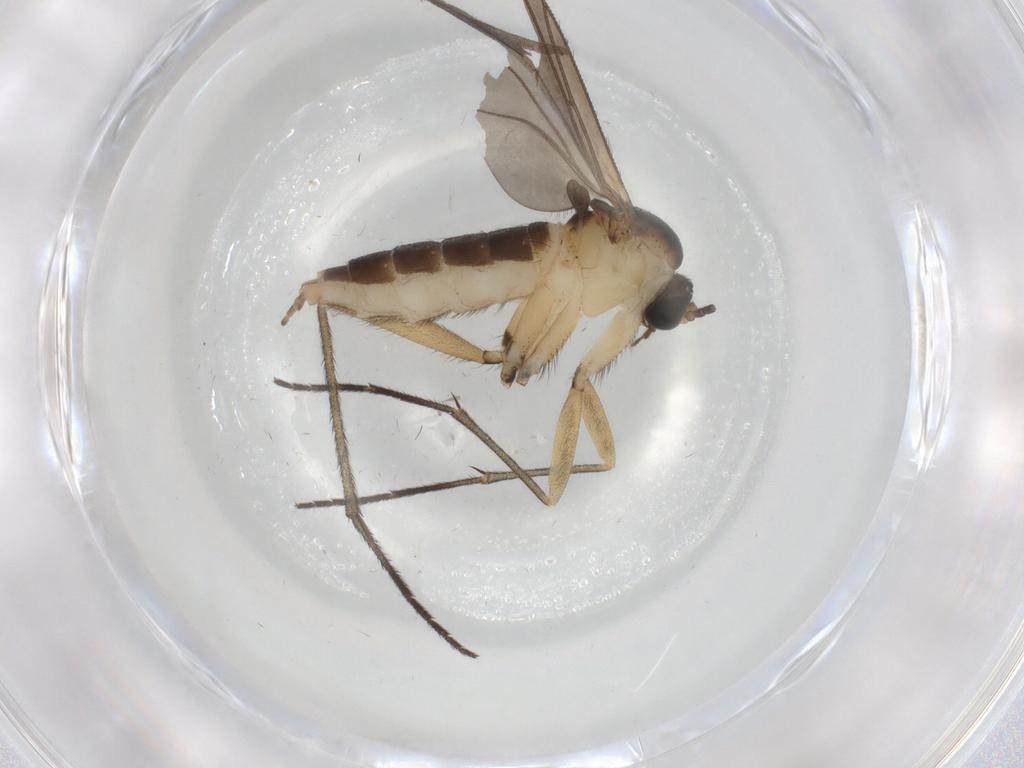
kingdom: Animalia
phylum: Arthropoda
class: Insecta
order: Diptera
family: Sciaridae
